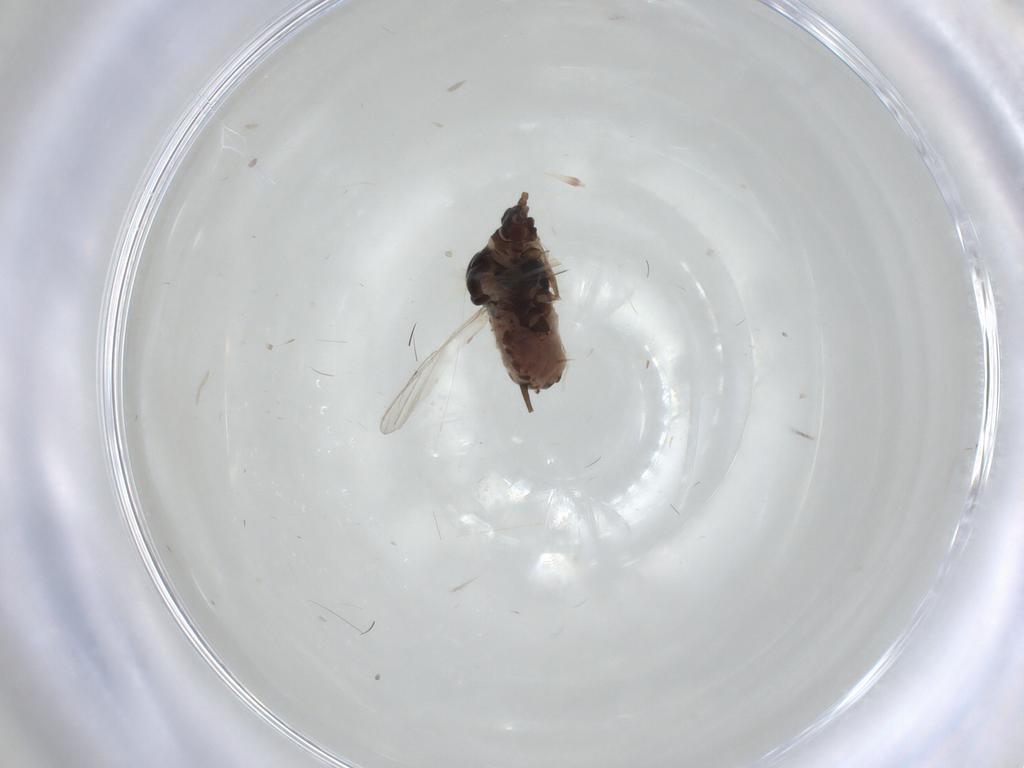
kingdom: Animalia
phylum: Arthropoda
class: Insecta
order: Hemiptera
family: Aphididae
